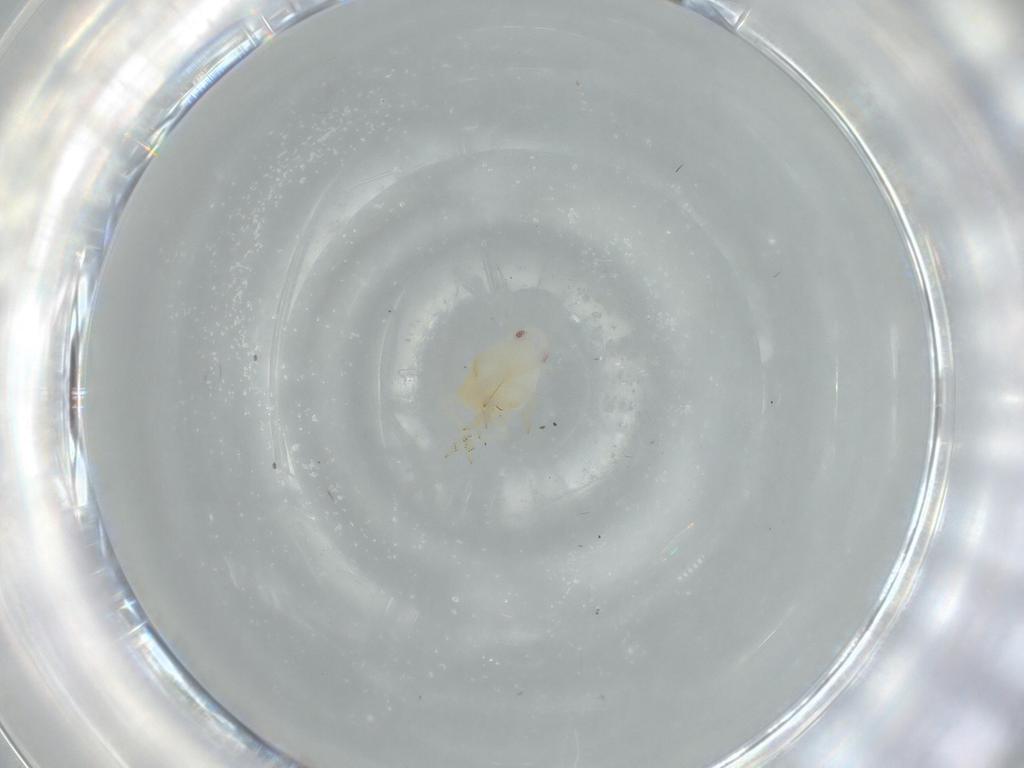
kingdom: Animalia
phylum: Arthropoda
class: Insecta
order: Hemiptera
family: Flatidae
